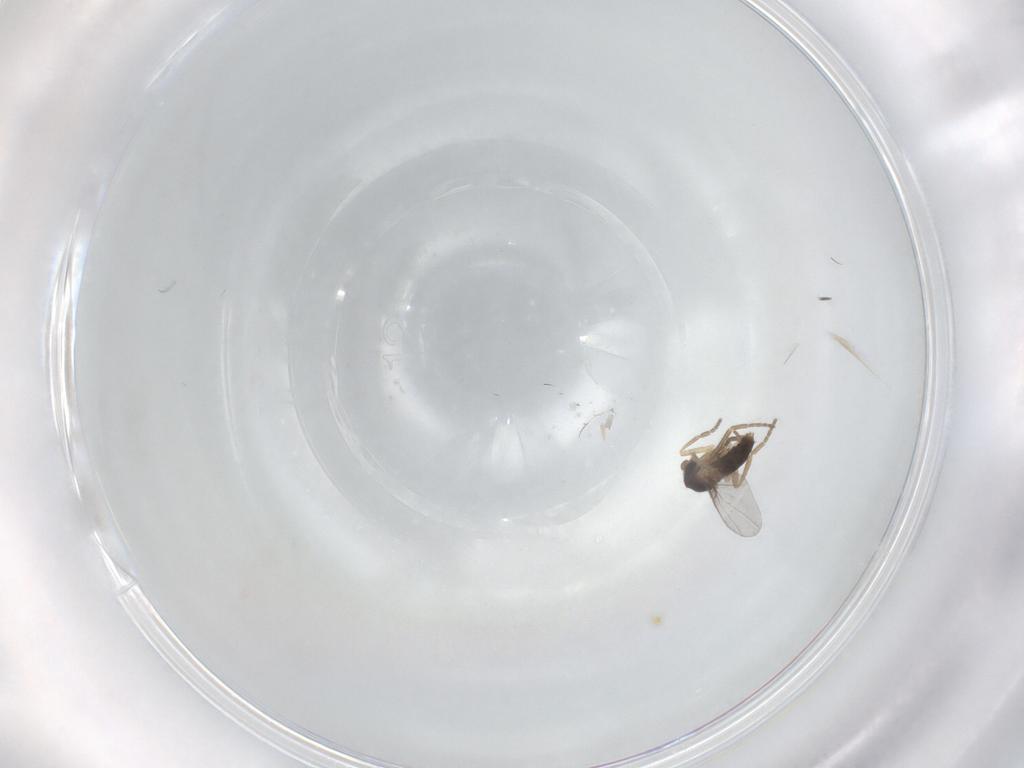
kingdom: Animalia
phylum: Arthropoda
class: Insecta
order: Diptera
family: Phoridae
